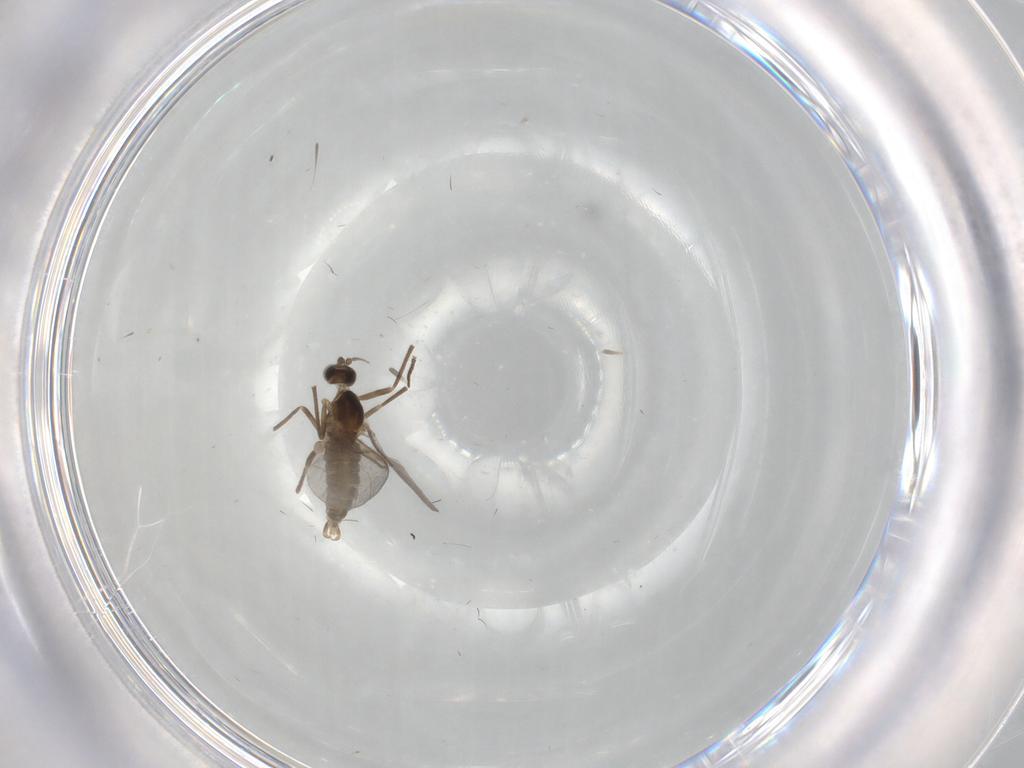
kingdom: Animalia
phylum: Arthropoda
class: Insecta
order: Diptera
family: Cecidomyiidae
